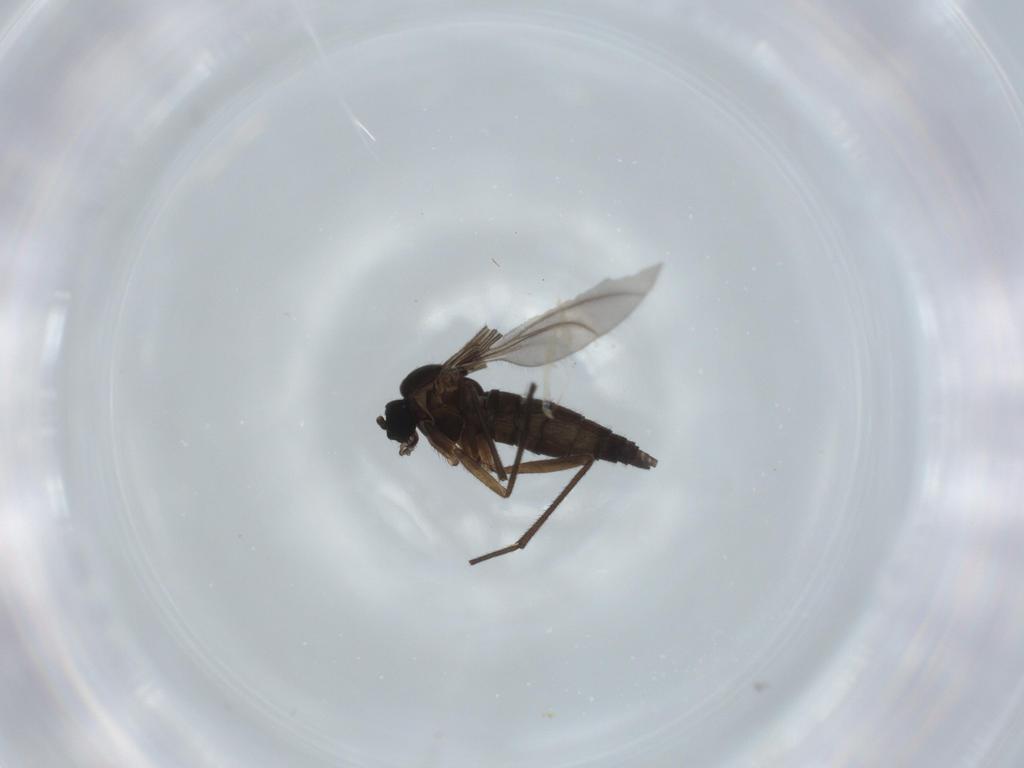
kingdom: Animalia
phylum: Arthropoda
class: Insecta
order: Diptera
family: Sciaridae
